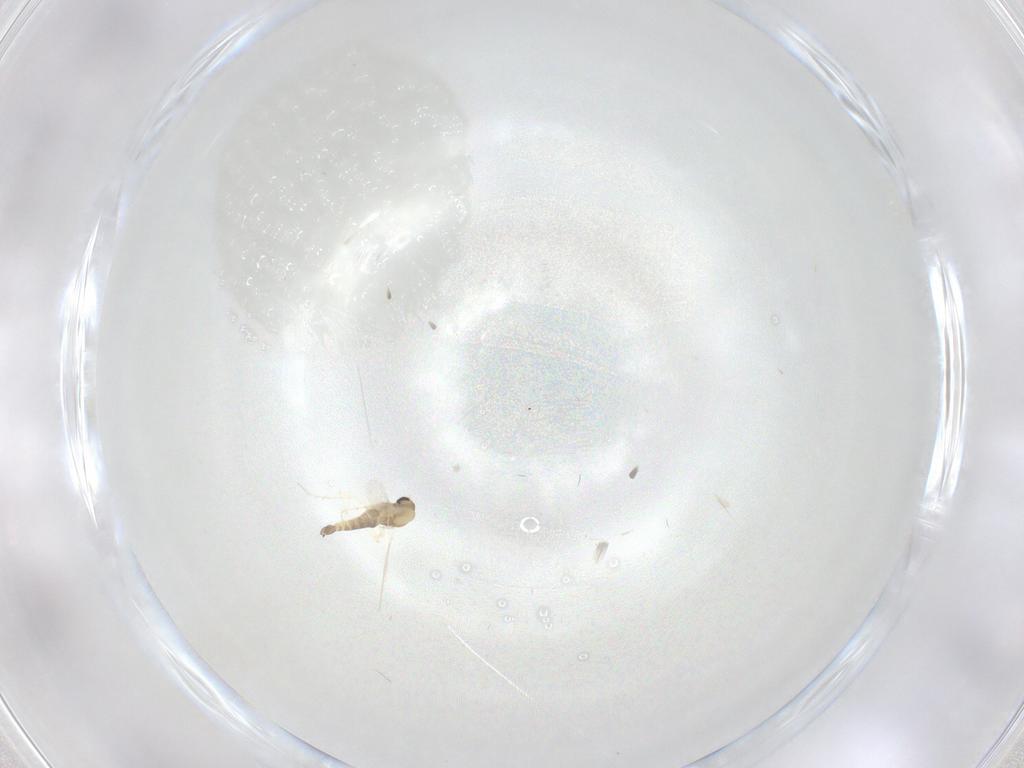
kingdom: Animalia
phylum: Arthropoda
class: Insecta
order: Diptera
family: Chironomidae
